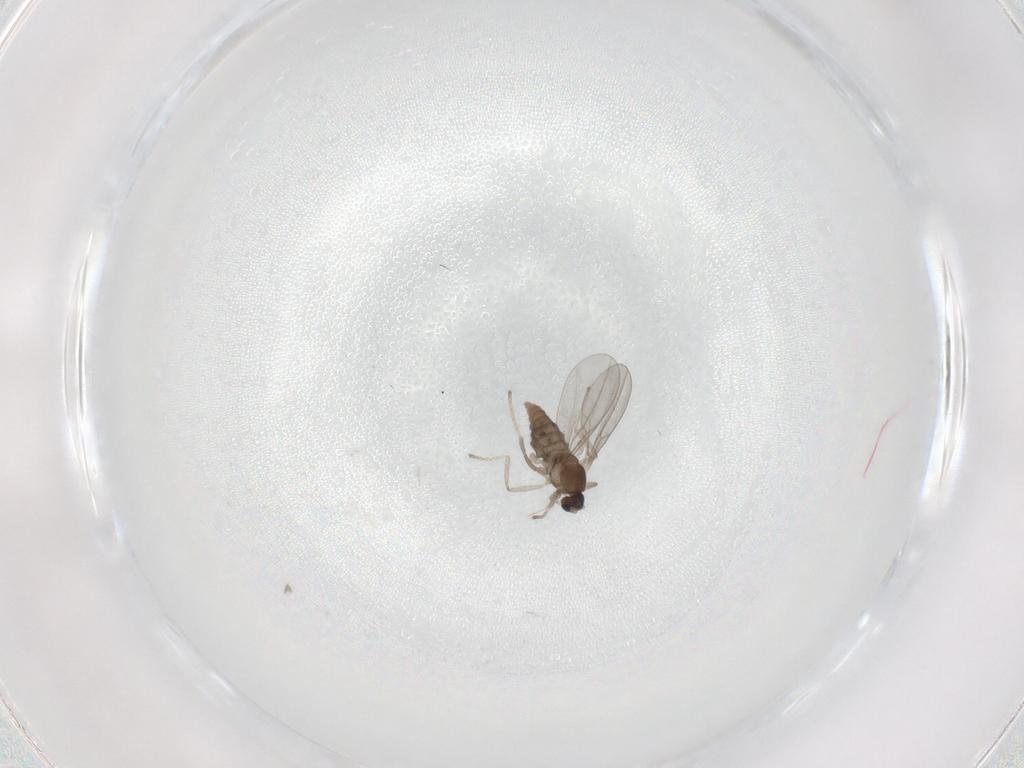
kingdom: Animalia
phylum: Arthropoda
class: Insecta
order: Diptera
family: Cecidomyiidae
